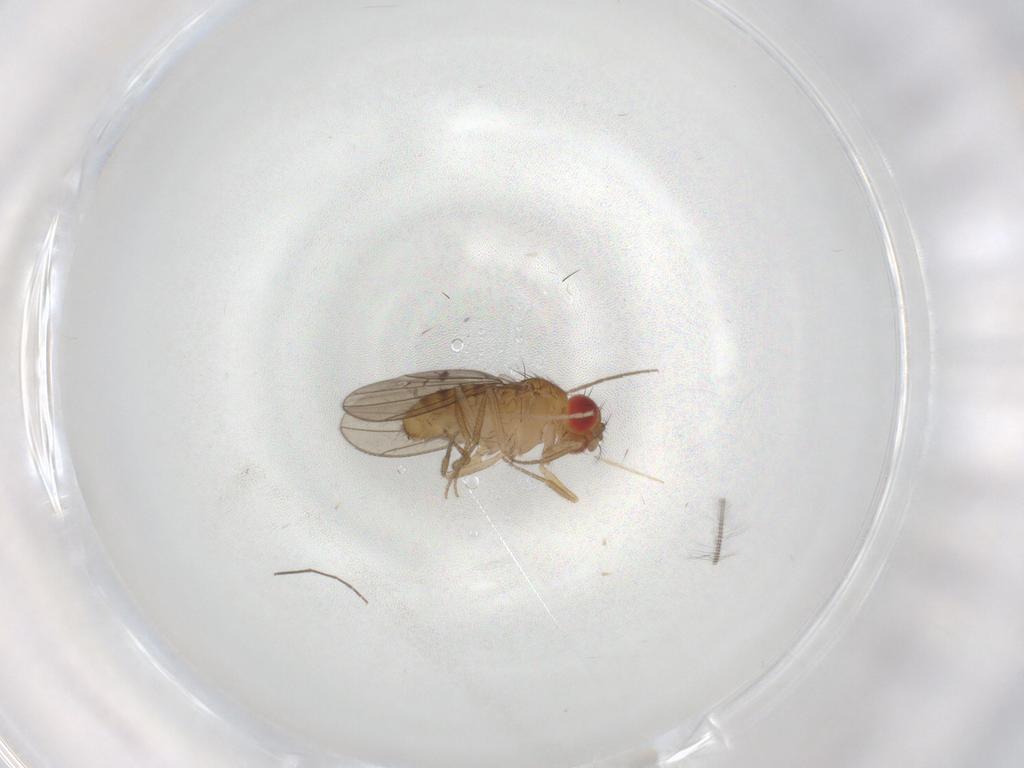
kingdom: Animalia
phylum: Arthropoda
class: Insecta
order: Diptera
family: Drosophilidae
